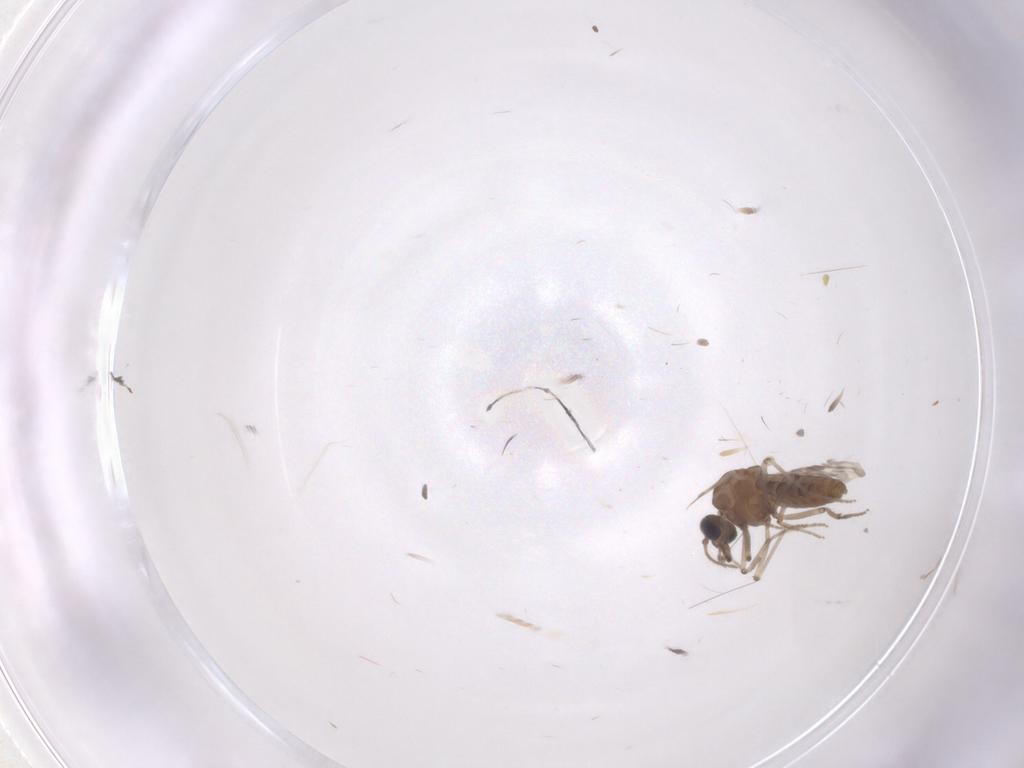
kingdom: Animalia
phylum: Arthropoda
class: Insecta
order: Diptera
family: Chironomidae
